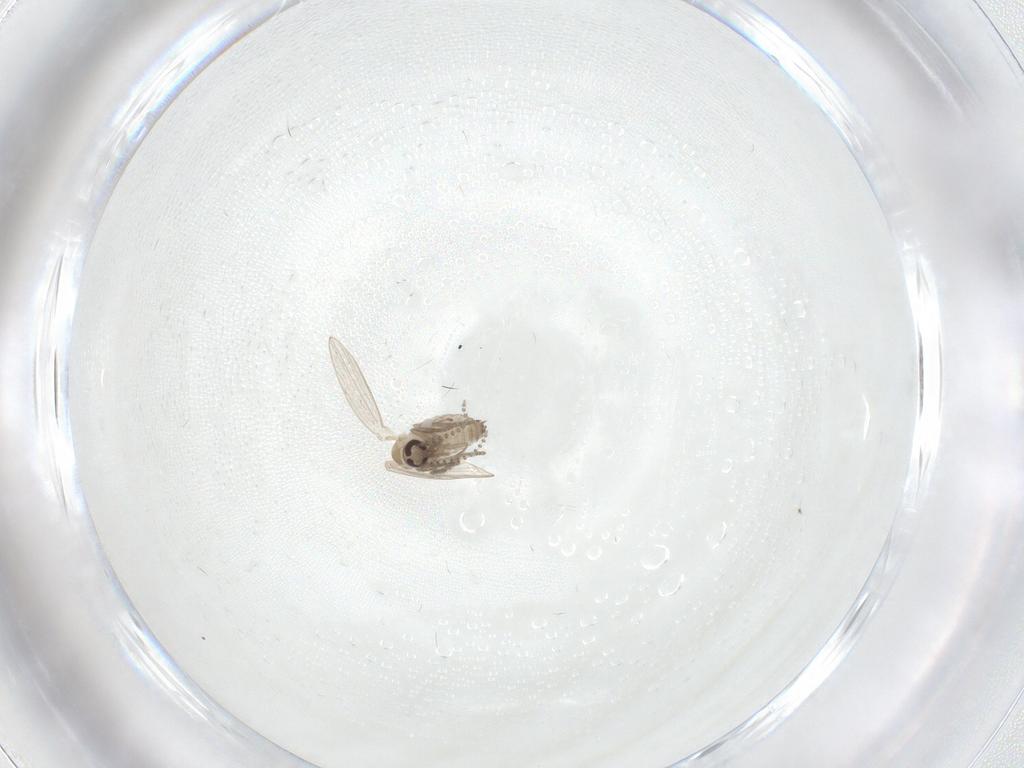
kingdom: Animalia
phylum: Arthropoda
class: Insecta
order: Diptera
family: Cecidomyiidae
